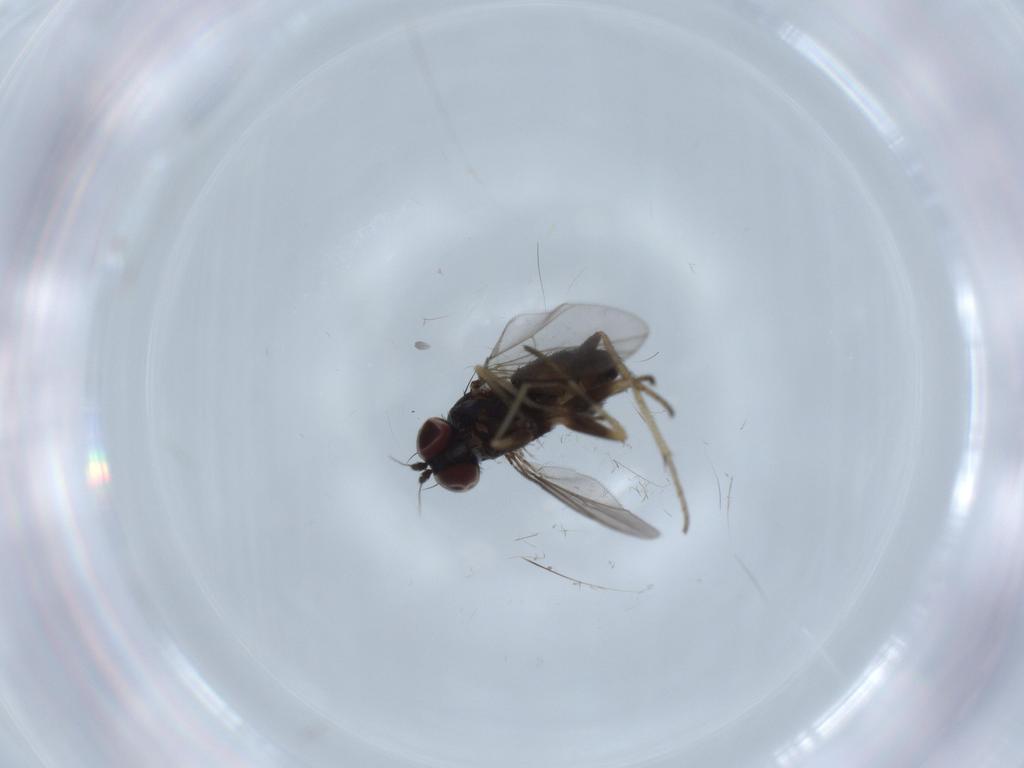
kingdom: Animalia
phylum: Arthropoda
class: Insecta
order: Diptera
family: Dolichopodidae
